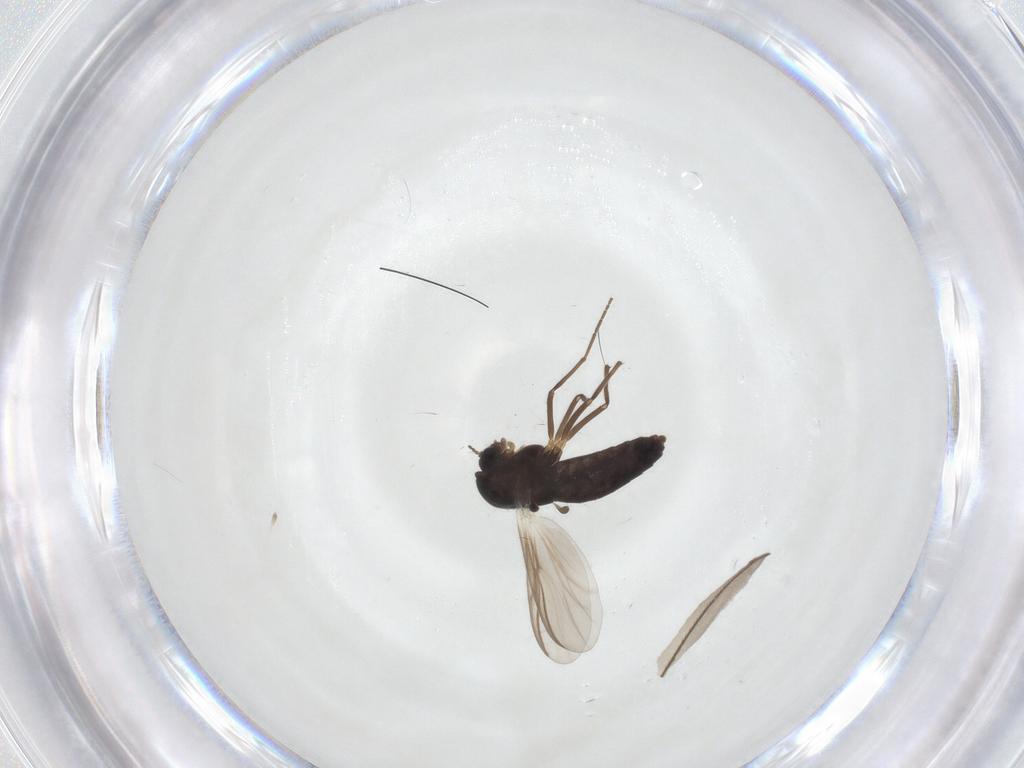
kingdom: Animalia
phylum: Arthropoda
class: Insecta
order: Diptera
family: Chironomidae
